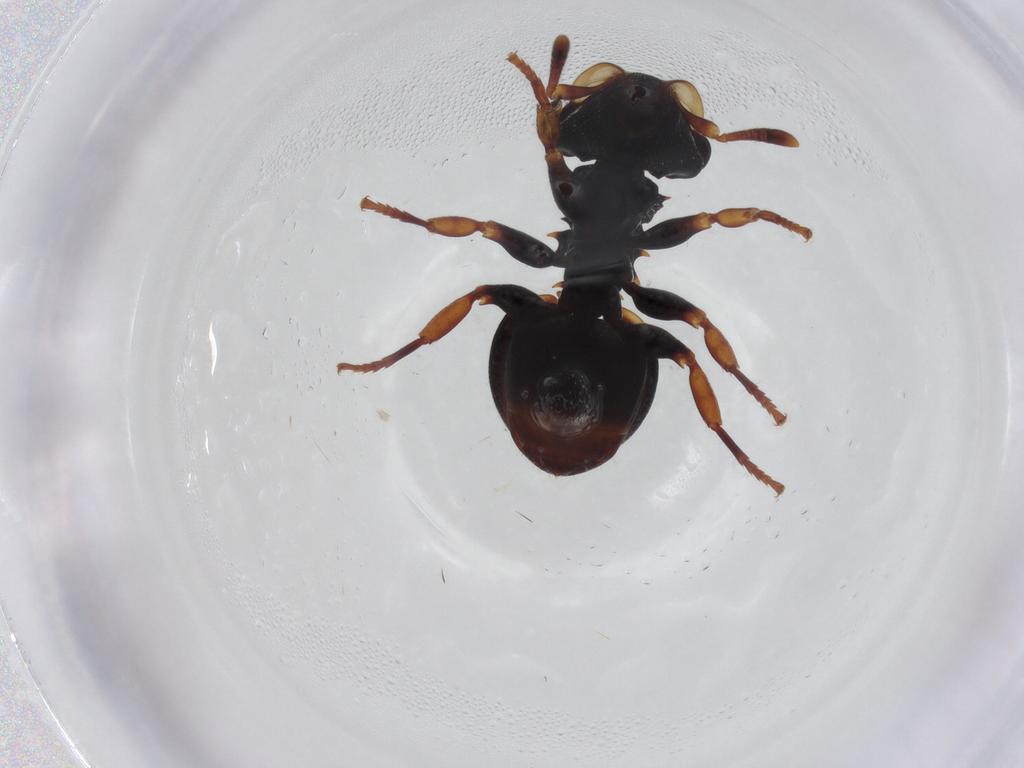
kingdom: Animalia
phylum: Arthropoda
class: Insecta
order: Hymenoptera
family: Formicidae
